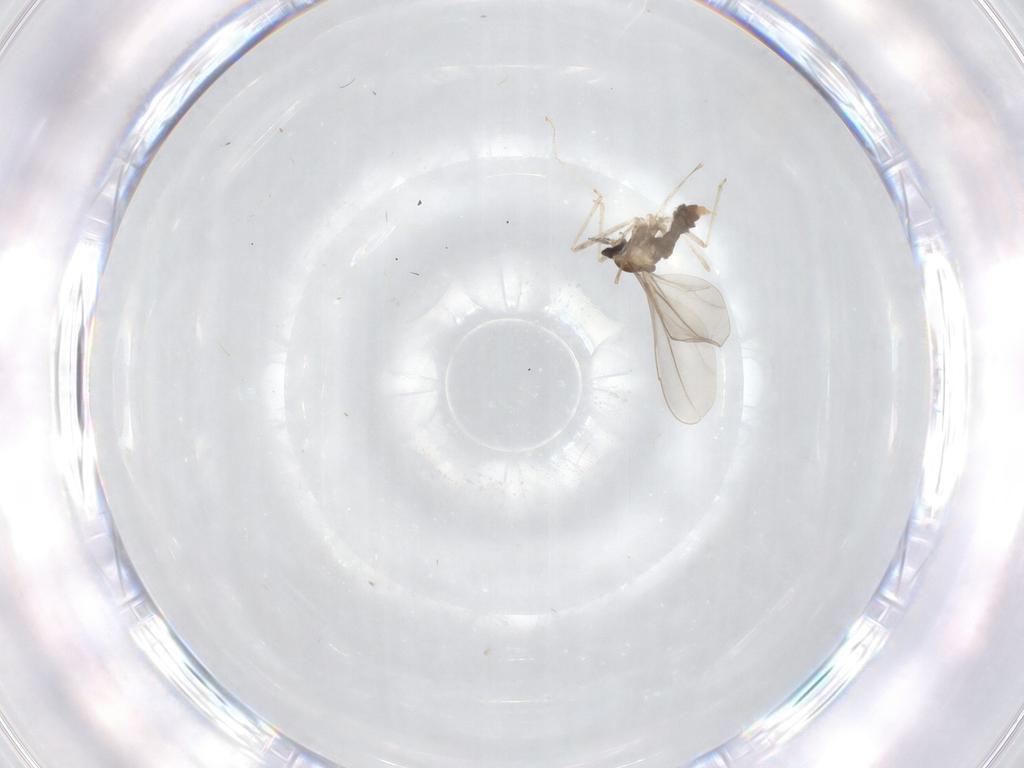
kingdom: Animalia
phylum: Arthropoda
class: Insecta
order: Diptera
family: Cecidomyiidae
